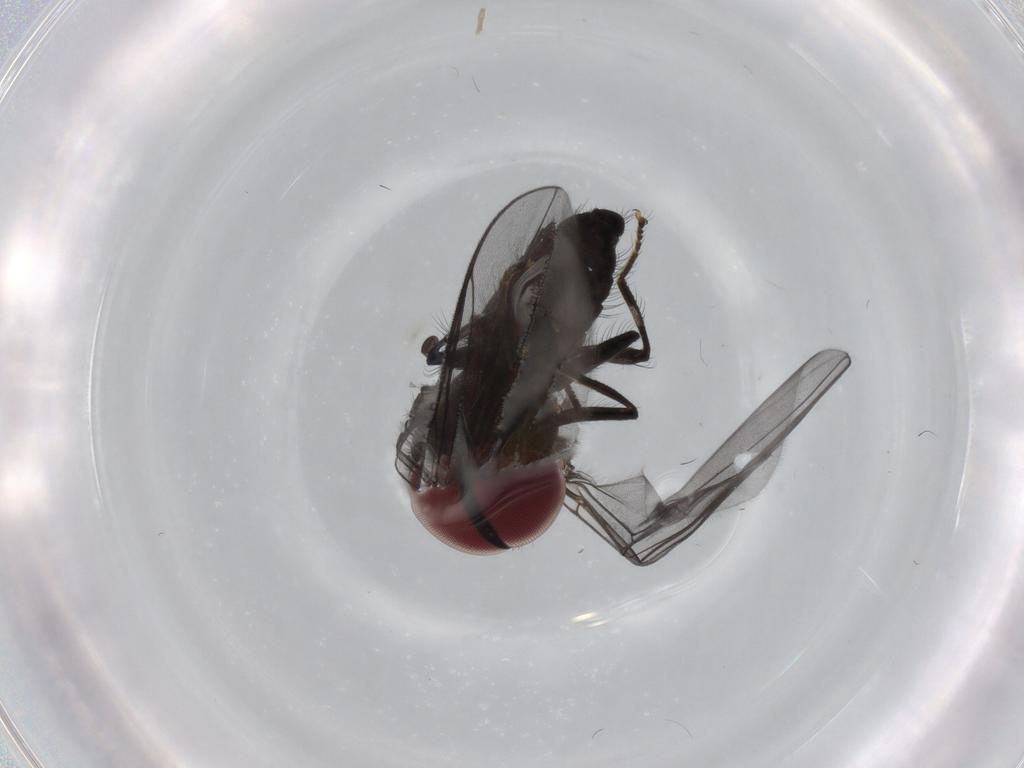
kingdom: Animalia
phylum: Arthropoda
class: Insecta
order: Diptera
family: Pipunculidae
